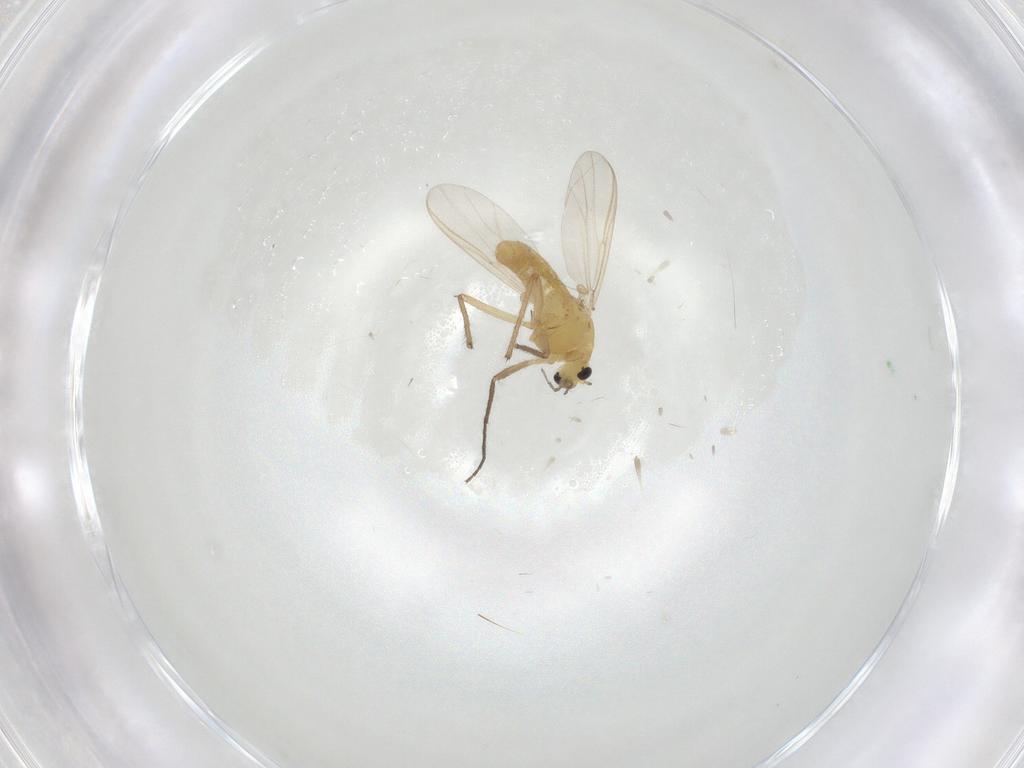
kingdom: Animalia
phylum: Arthropoda
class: Insecta
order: Diptera
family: Chironomidae
